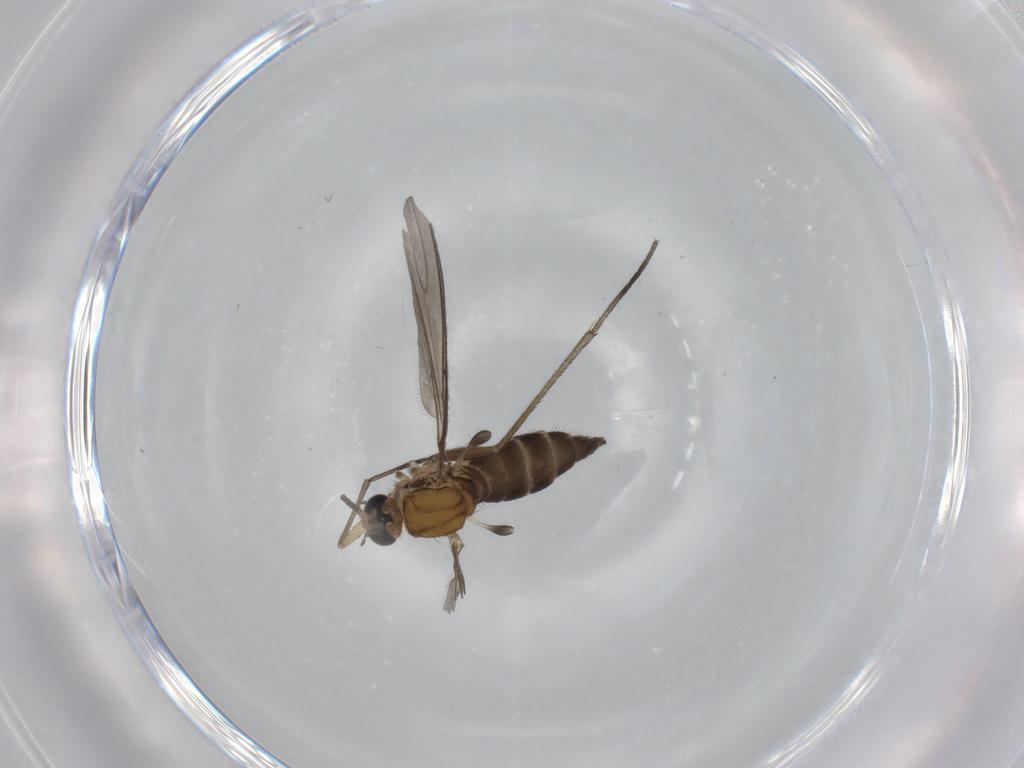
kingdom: Animalia
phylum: Arthropoda
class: Insecta
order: Diptera
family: Sciaridae
